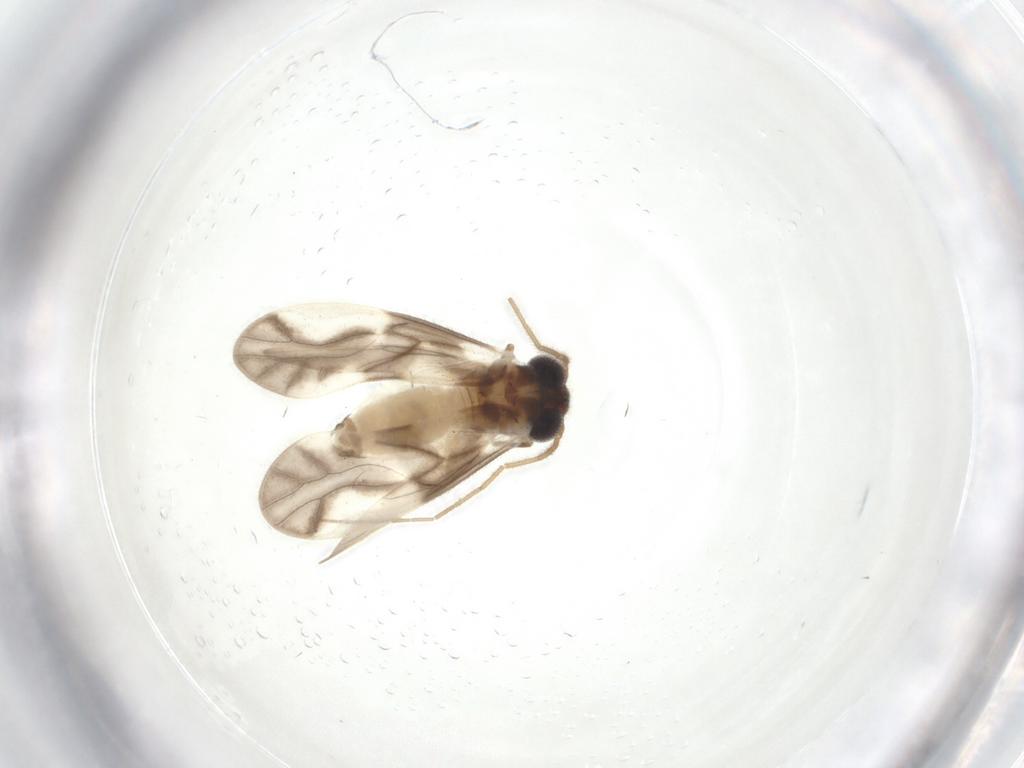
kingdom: Animalia
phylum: Arthropoda
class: Insecta
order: Psocodea
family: Caeciliusidae
